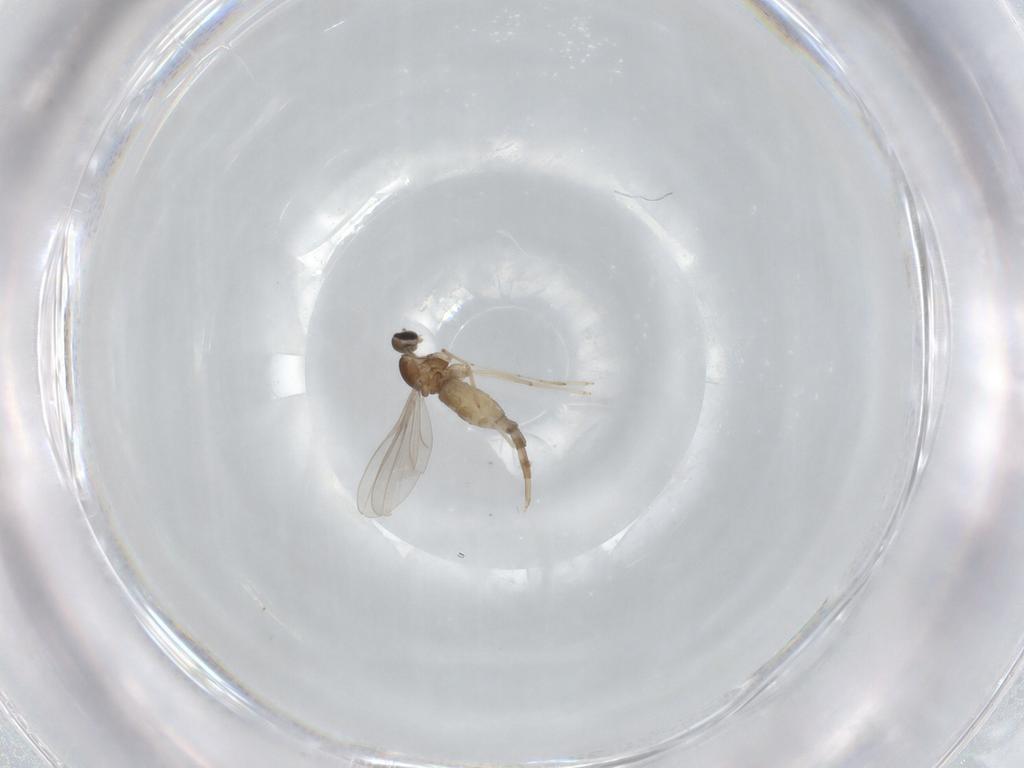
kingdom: Animalia
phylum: Arthropoda
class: Insecta
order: Diptera
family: Cecidomyiidae
